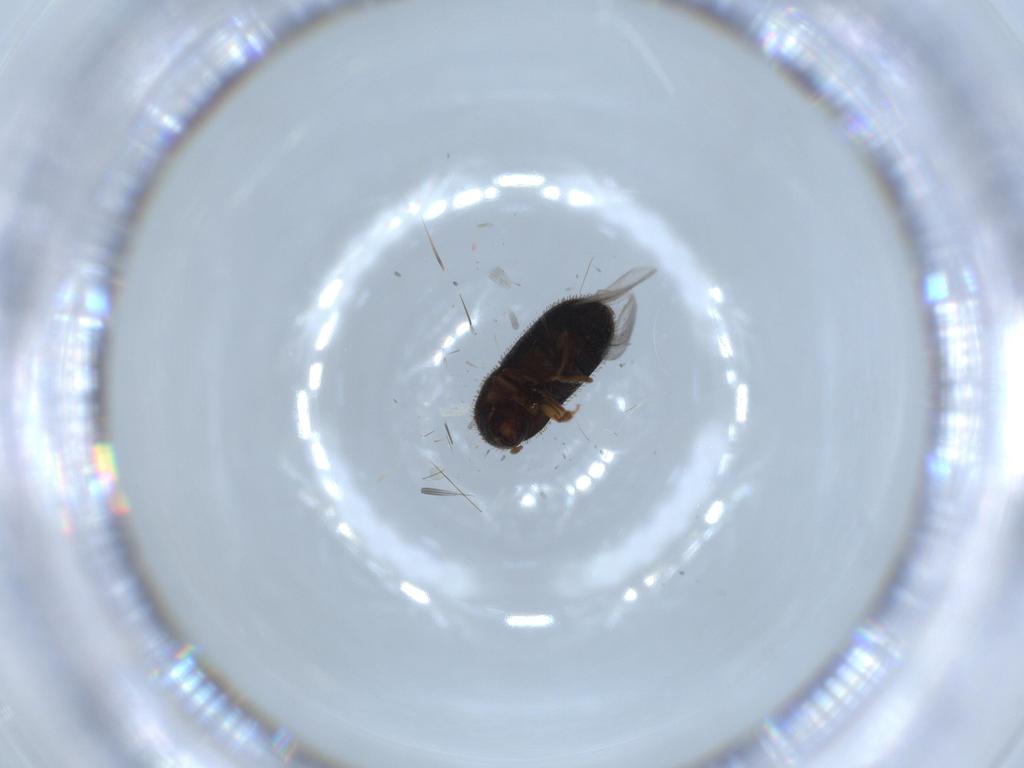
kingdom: Animalia
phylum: Arthropoda
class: Insecta
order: Coleoptera
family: Curculionidae
